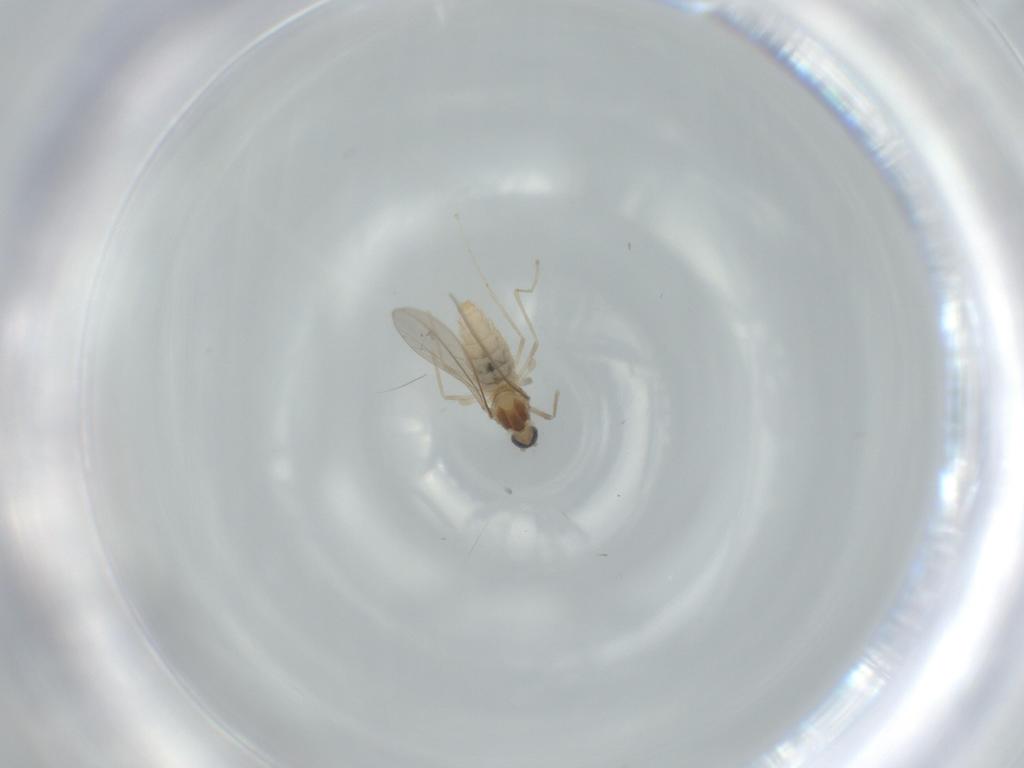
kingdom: Animalia
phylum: Arthropoda
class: Insecta
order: Diptera
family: Cecidomyiidae
